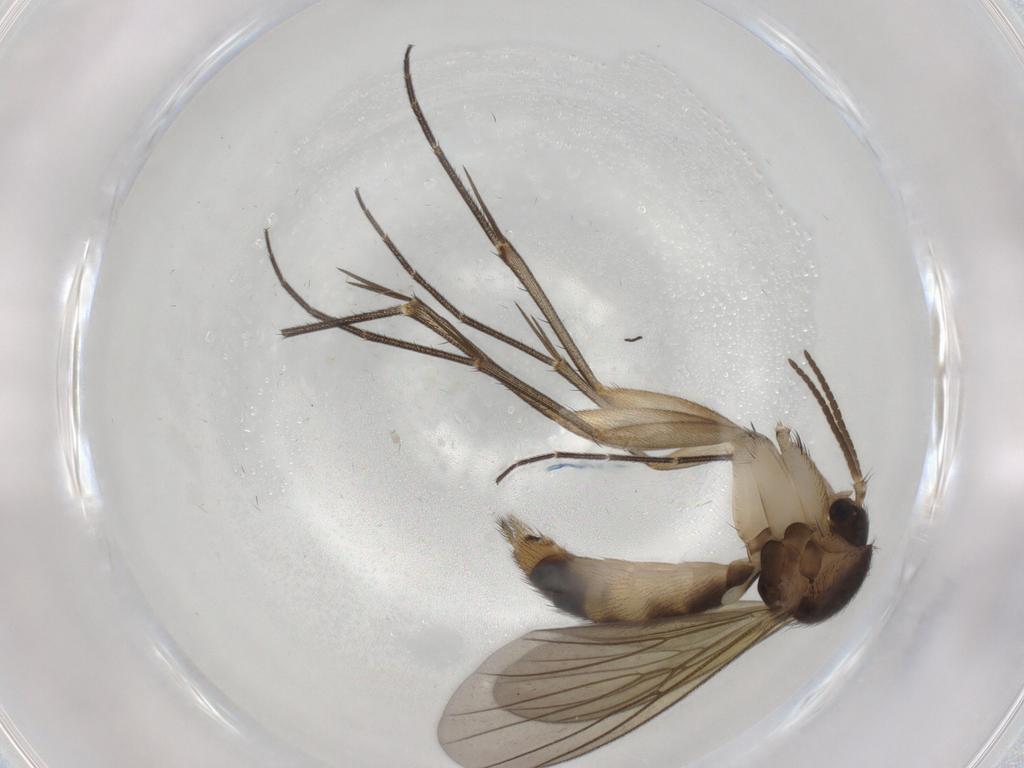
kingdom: Animalia
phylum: Arthropoda
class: Insecta
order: Diptera
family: Mycetophilidae
